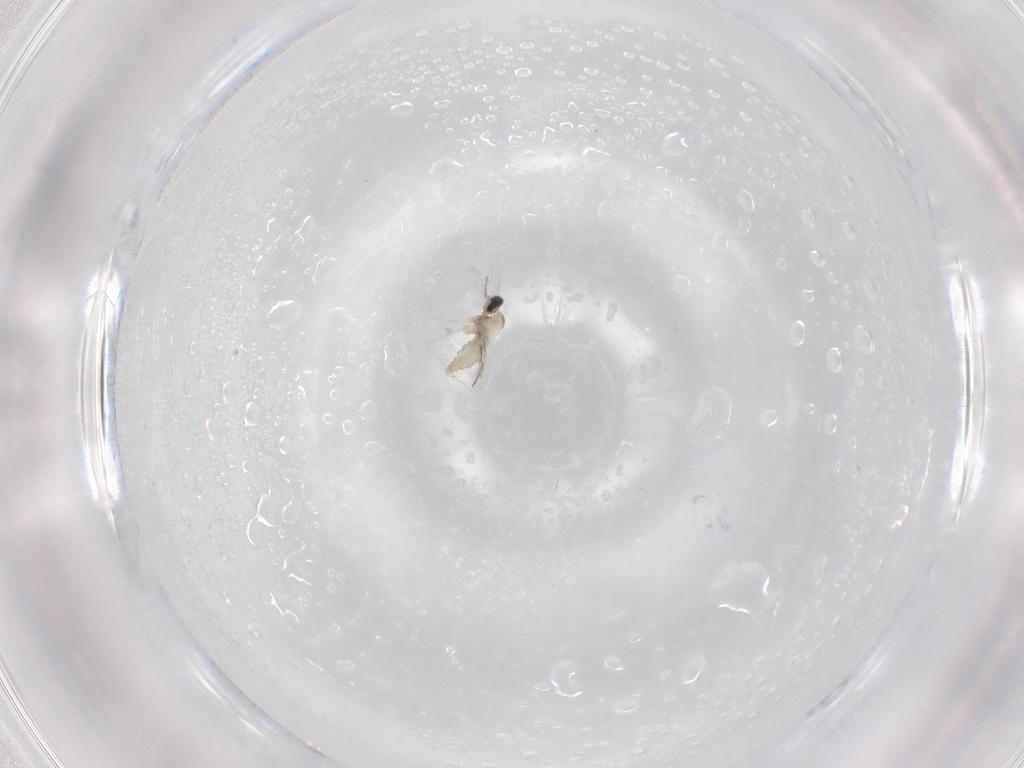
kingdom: Animalia
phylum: Arthropoda
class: Insecta
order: Diptera
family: Cecidomyiidae
